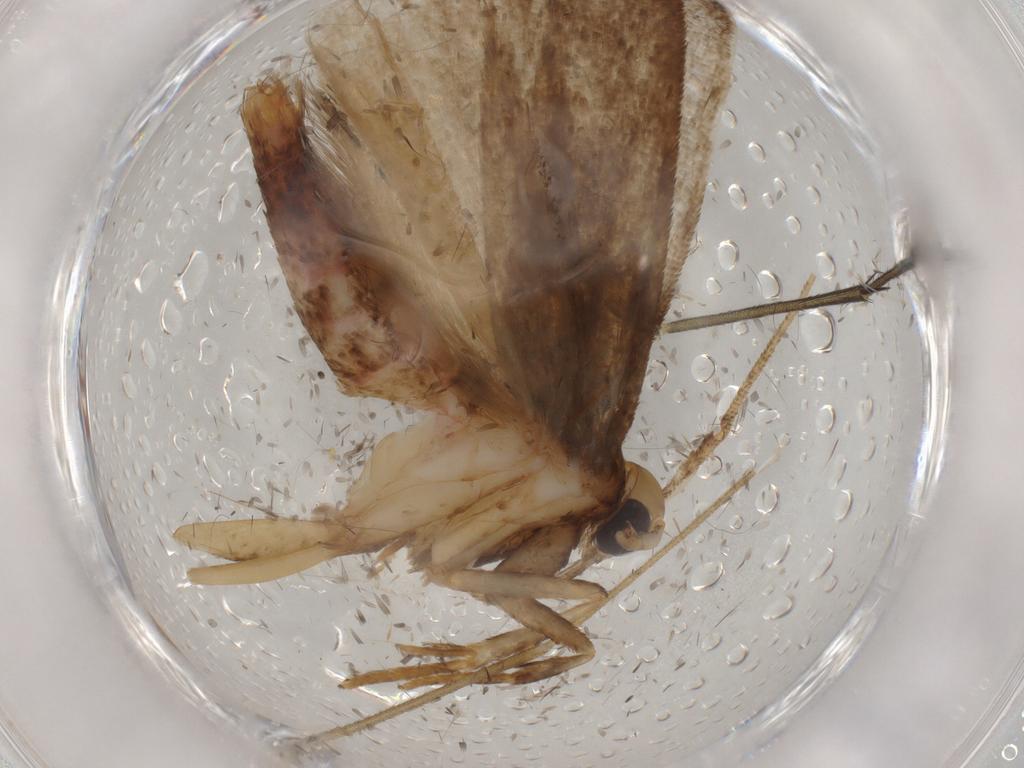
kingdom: Animalia
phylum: Arthropoda
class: Insecta
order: Lepidoptera
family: Autostichidae
